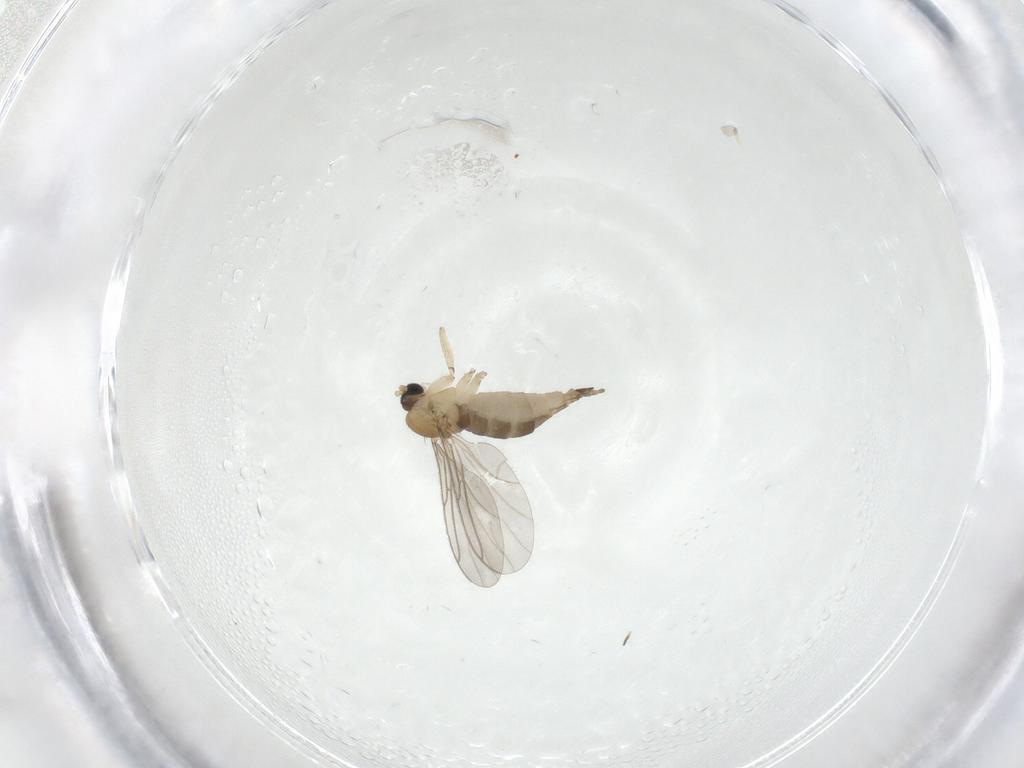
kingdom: Animalia
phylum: Arthropoda
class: Insecta
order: Diptera
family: Sciaridae
